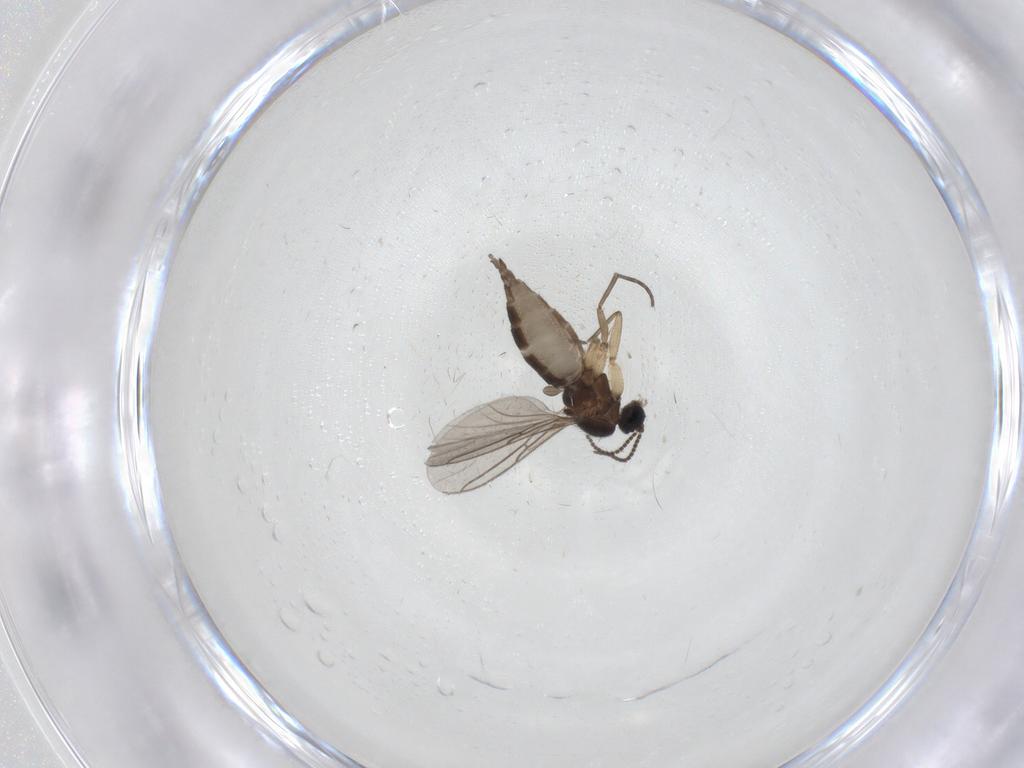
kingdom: Animalia
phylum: Arthropoda
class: Insecta
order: Diptera
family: Sciaridae
